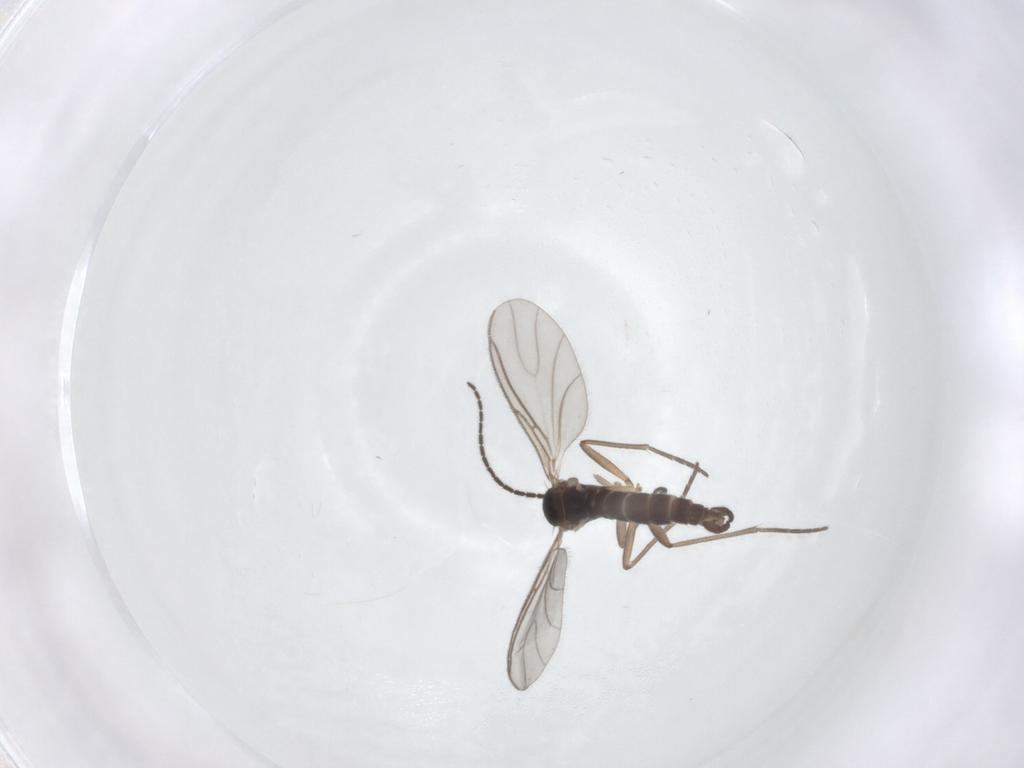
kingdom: Animalia
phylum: Arthropoda
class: Insecta
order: Diptera
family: Sciaridae
